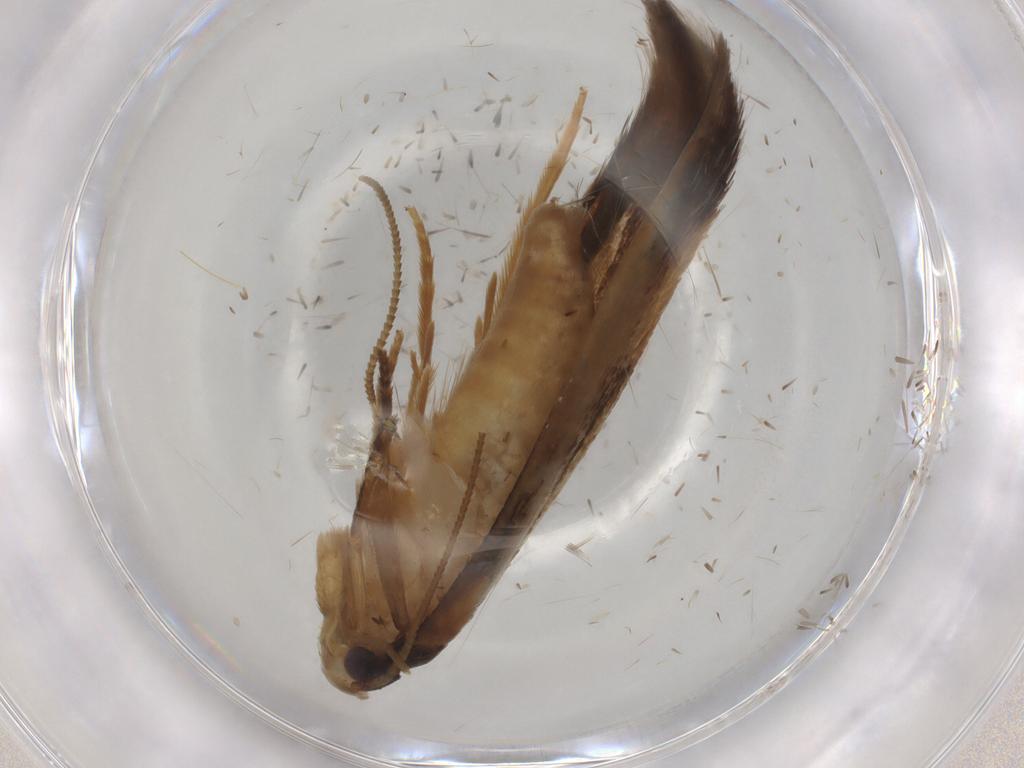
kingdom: Animalia
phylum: Arthropoda
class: Insecta
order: Lepidoptera
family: Tineidae
